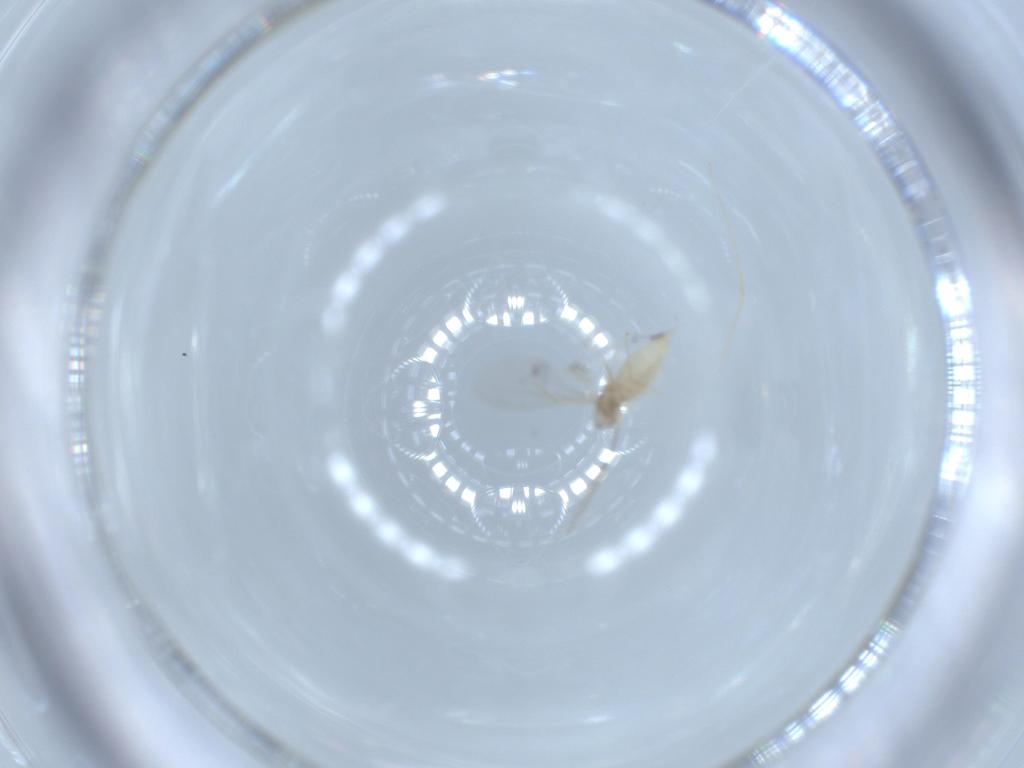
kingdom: Animalia
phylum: Arthropoda
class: Insecta
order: Diptera
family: Cecidomyiidae
